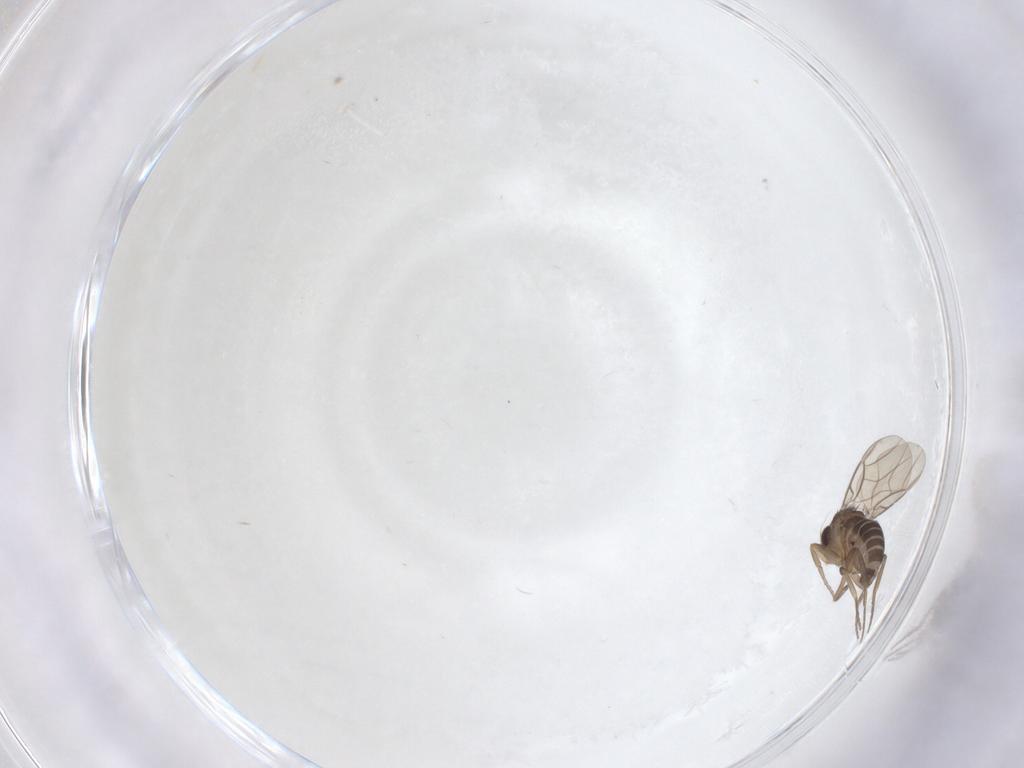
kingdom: Animalia
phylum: Arthropoda
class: Insecta
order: Diptera
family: Phoridae
